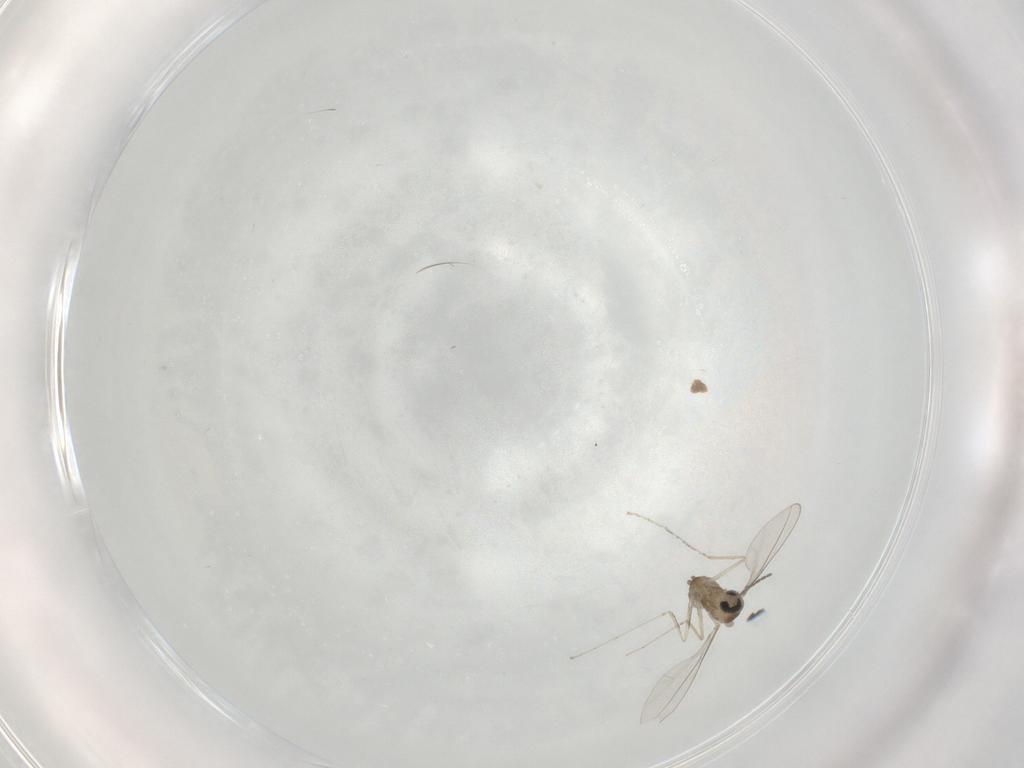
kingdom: Animalia
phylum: Arthropoda
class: Insecta
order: Diptera
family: Cecidomyiidae
